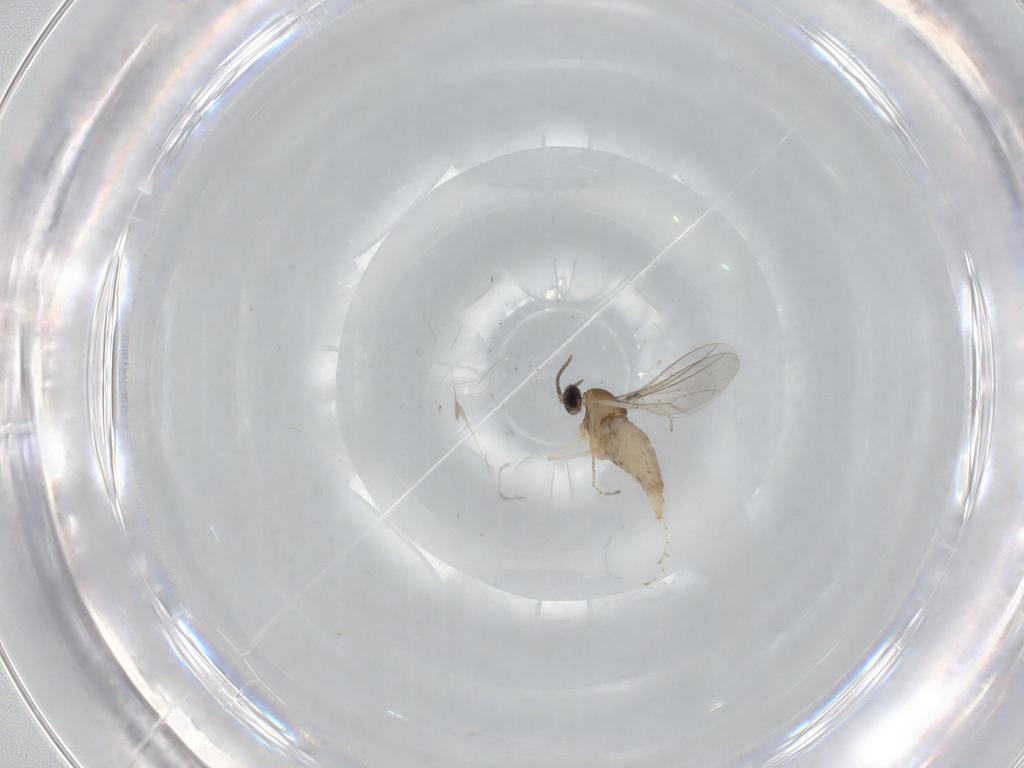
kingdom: Animalia
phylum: Arthropoda
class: Insecta
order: Diptera
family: Cecidomyiidae
